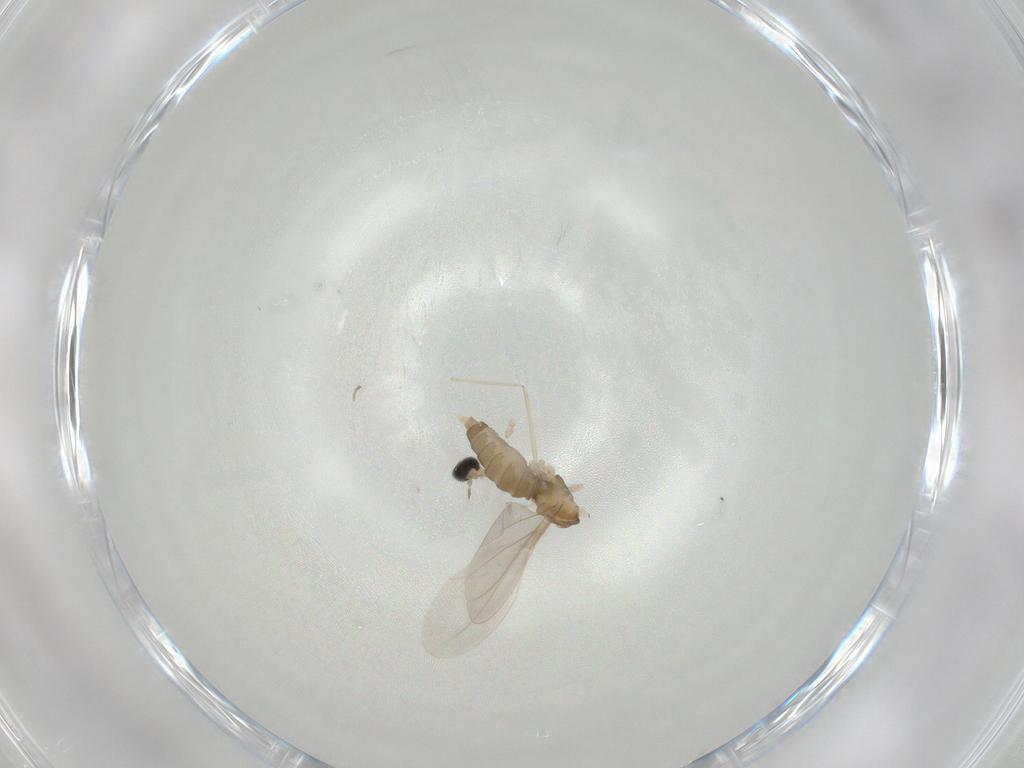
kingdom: Animalia
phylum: Arthropoda
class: Insecta
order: Diptera
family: Cecidomyiidae
